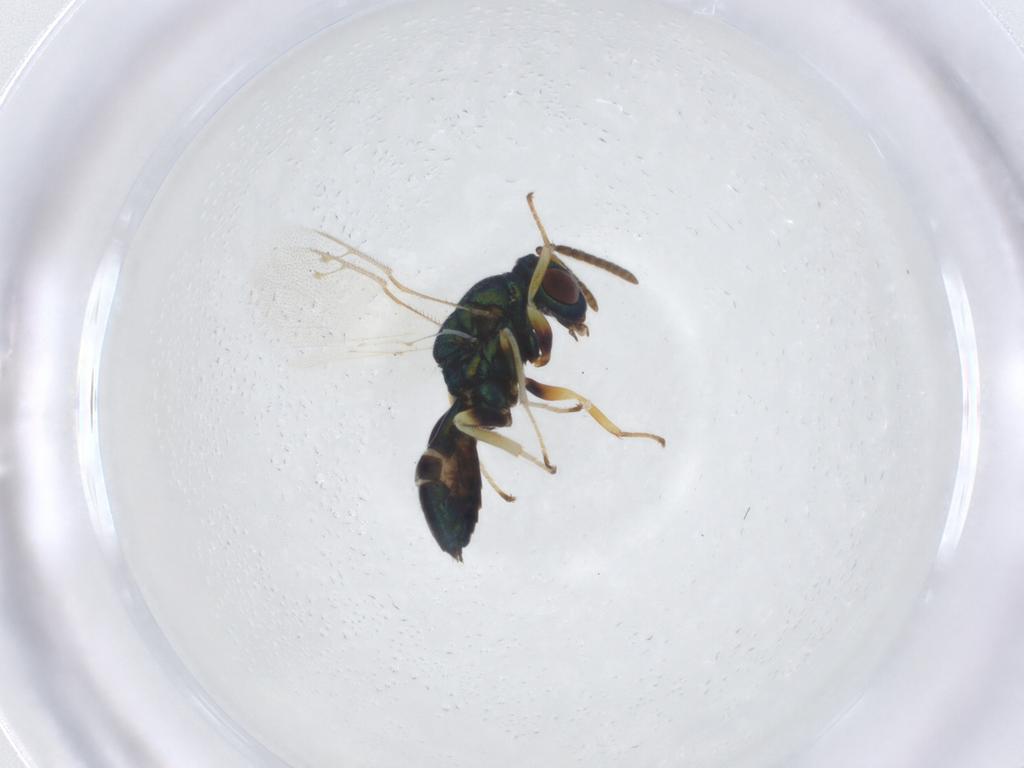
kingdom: Animalia
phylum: Arthropoda
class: Insecta
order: Hymenoptera
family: Pteromalidae
